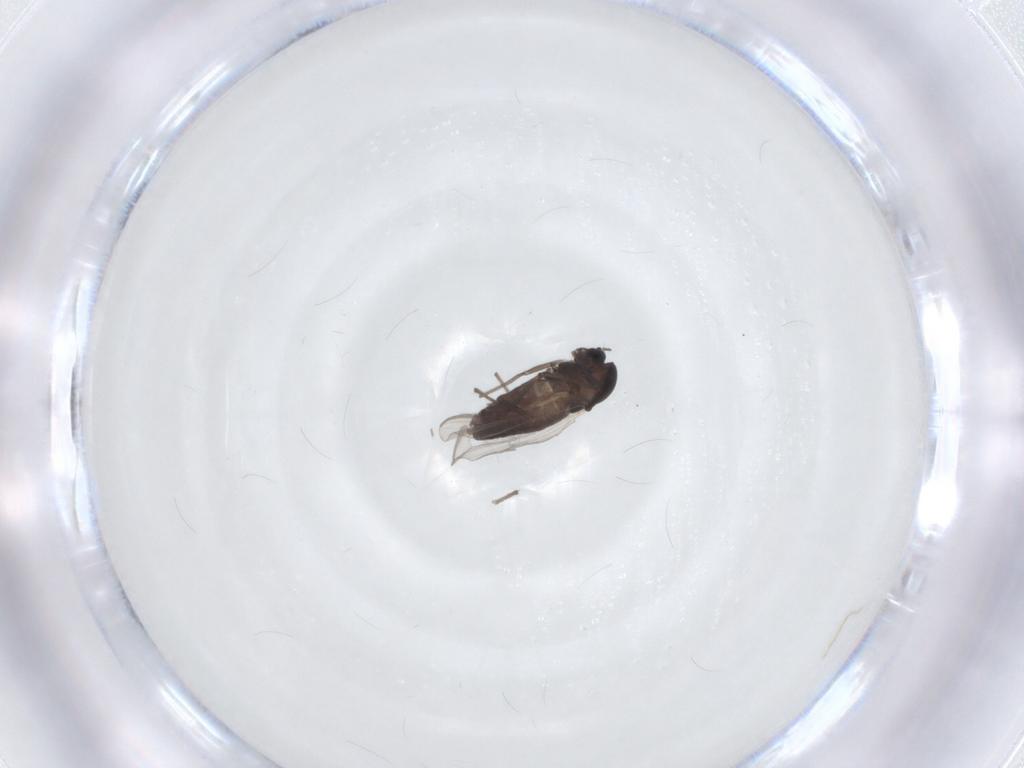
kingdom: Animalia
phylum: Arthropoda
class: Insecta
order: Diptera
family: Chironomidae
